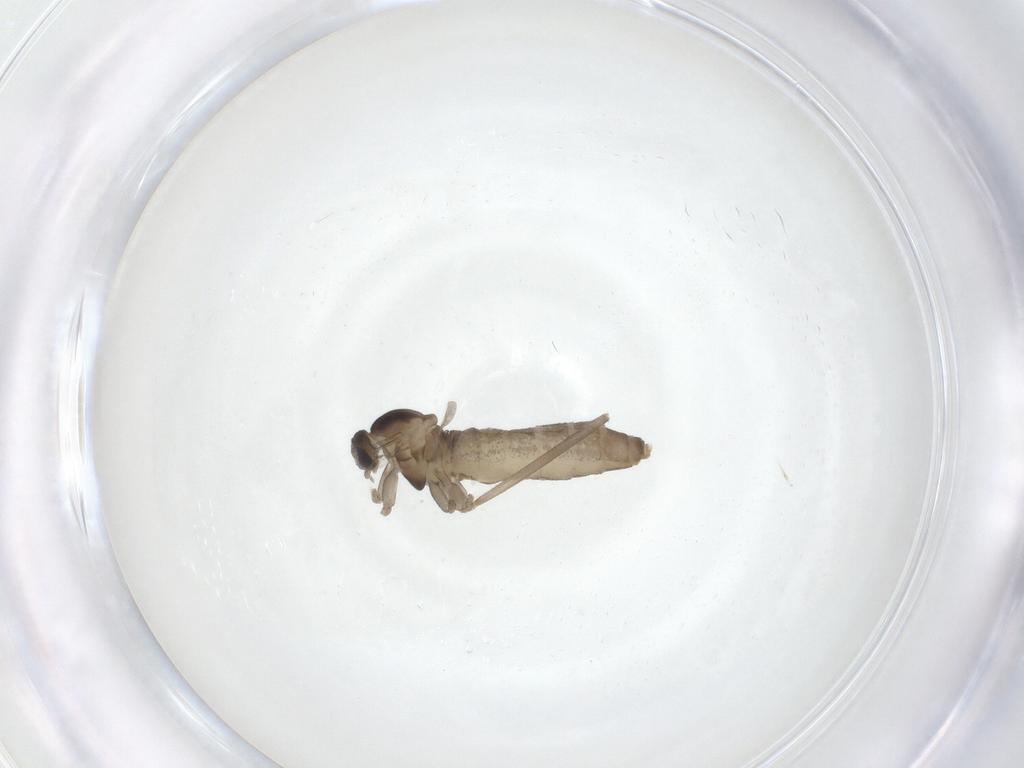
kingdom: Animalia
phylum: Arthropoda
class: Insecta
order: Diptera
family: Cecidomyiidae
